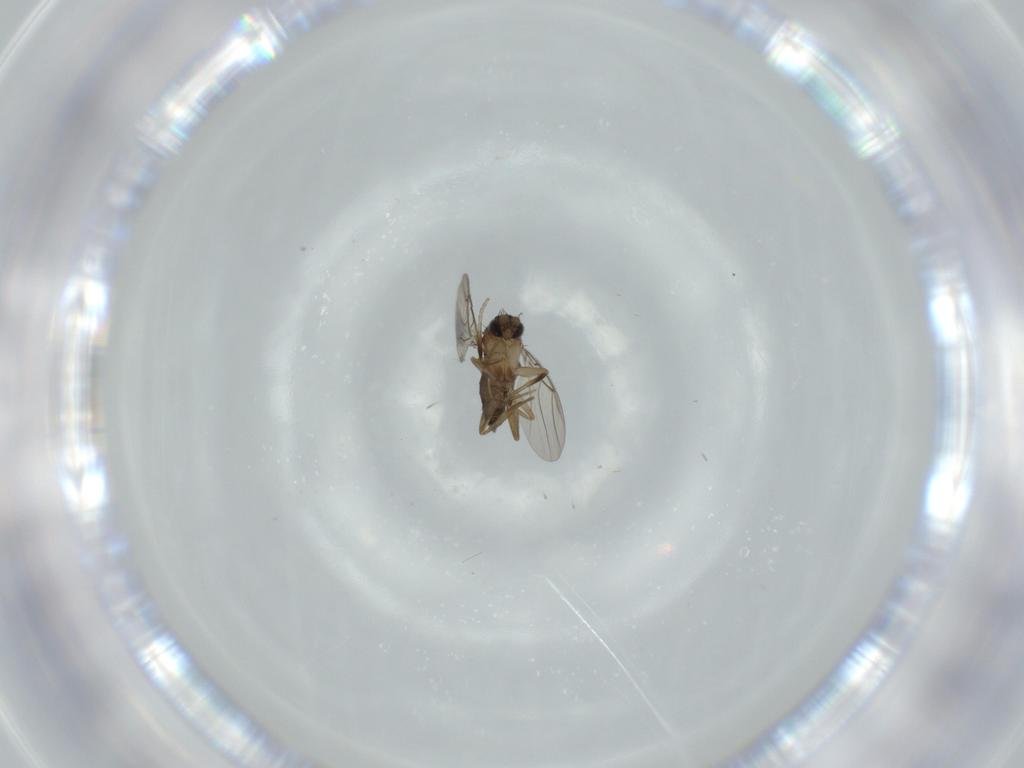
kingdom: Animalia
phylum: Arthropoda
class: Insecta
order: Diptera
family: Phoridae
